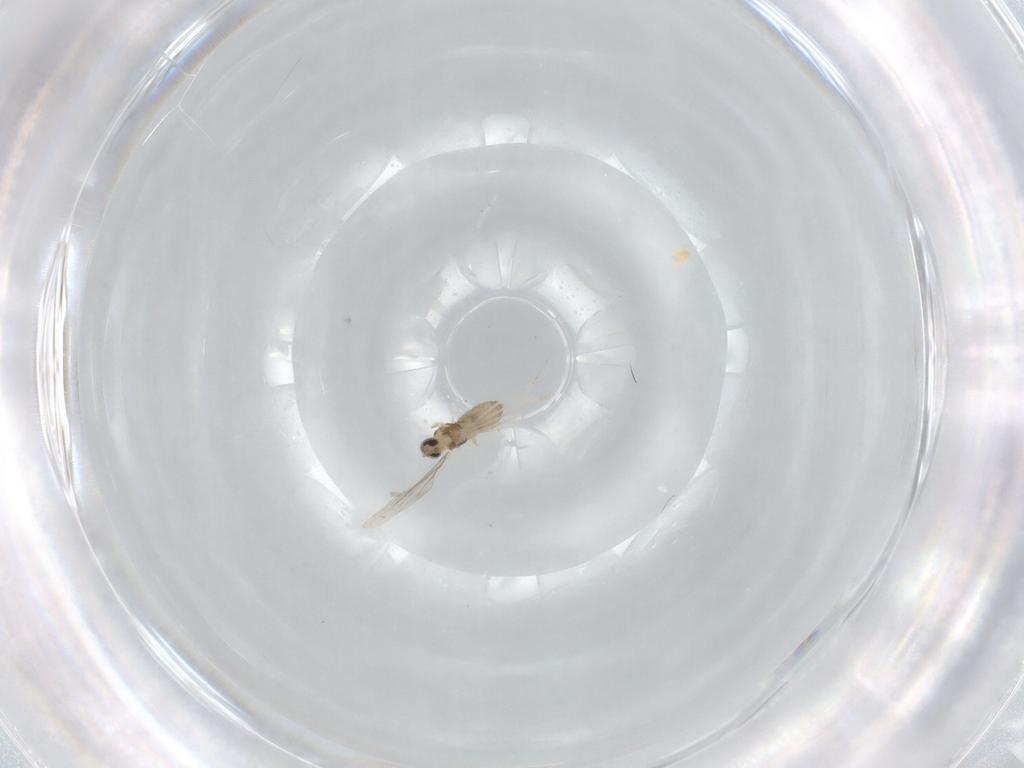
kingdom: Animalia
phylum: Arthropoda
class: Insecta
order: Diptera
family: Cecidomyiidae
